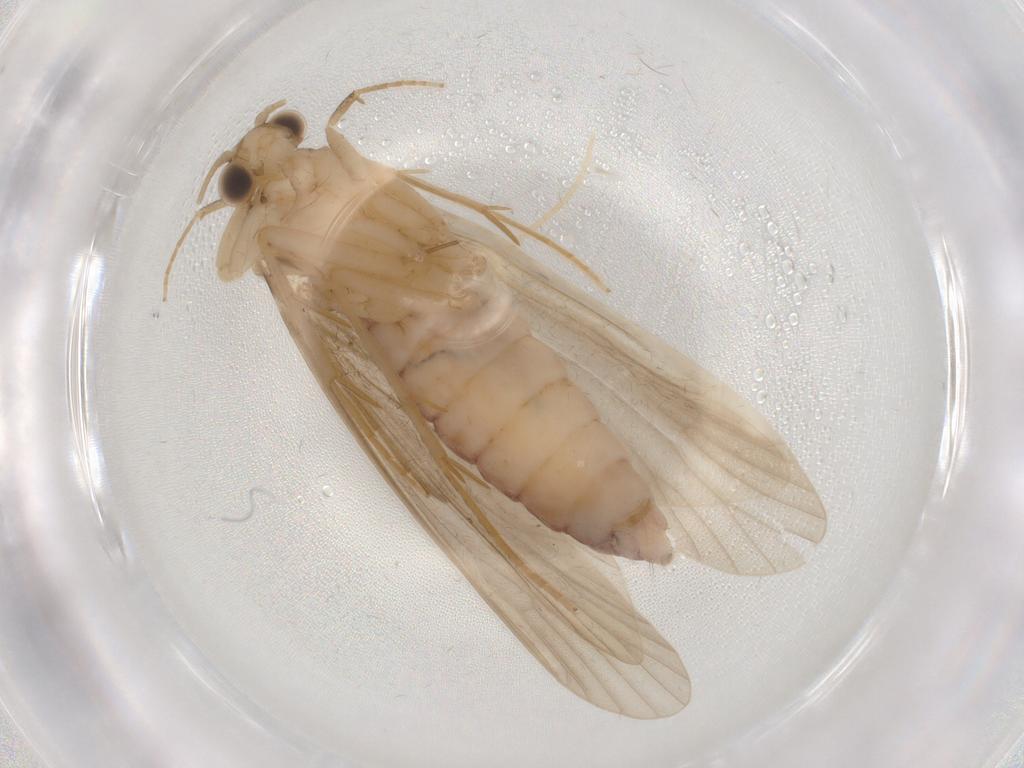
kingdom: Animalia
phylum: Arthropoda
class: Insecta
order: Trichoptera
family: Ecnomidae
